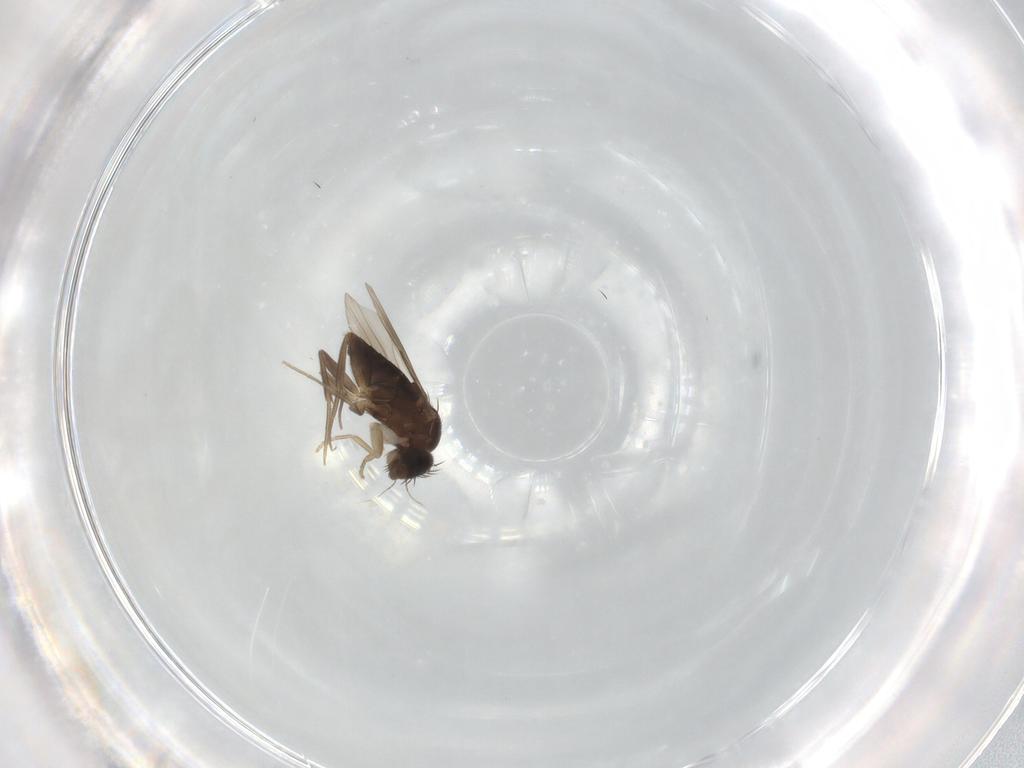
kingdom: Animalia
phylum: Arthropoda
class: Insecta
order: Diptera
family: Phoridae
